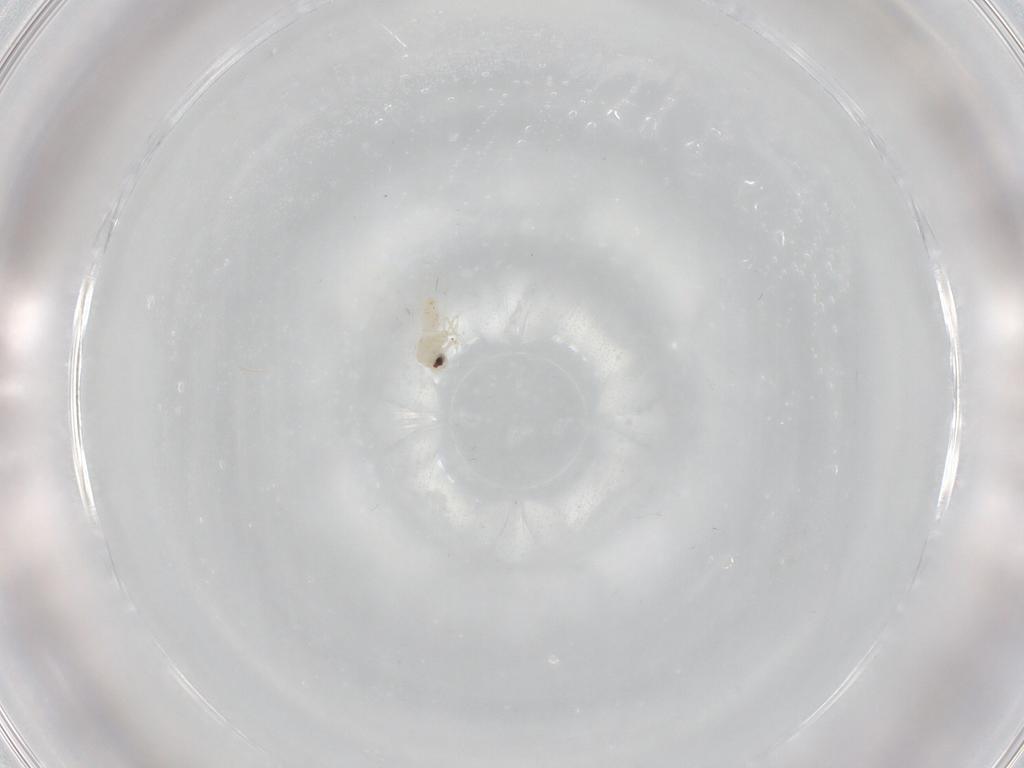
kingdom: Animalia
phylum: Arthropoda
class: Insecta
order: Hemiptera
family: Aleyrodidae
